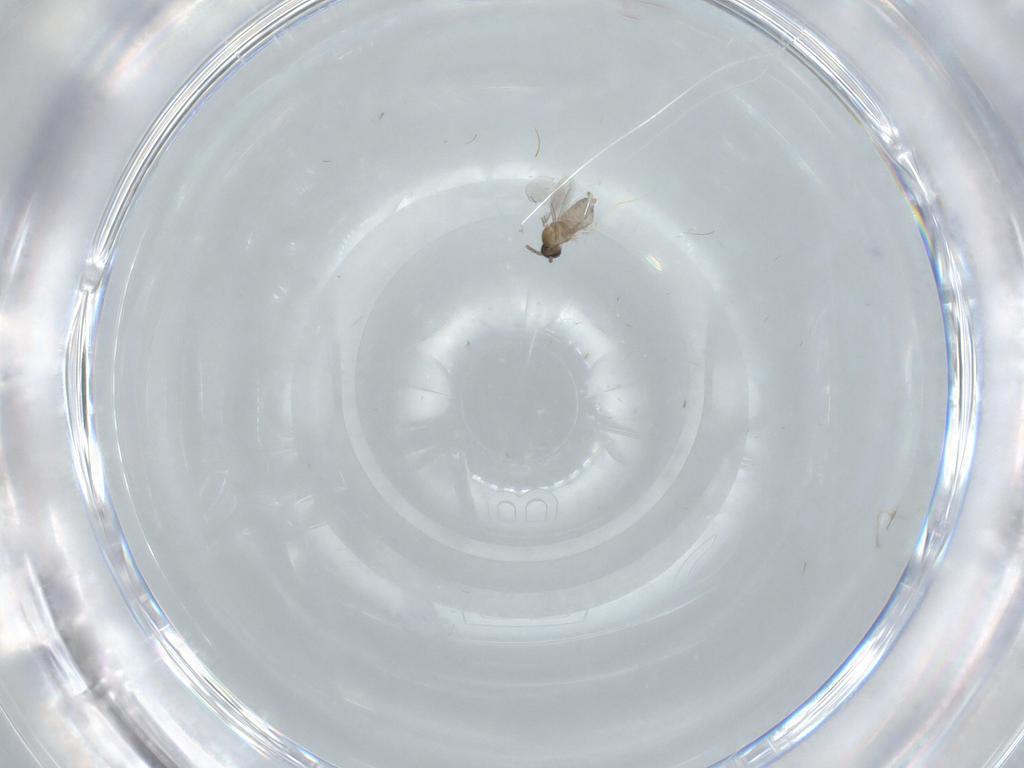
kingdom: Animalia
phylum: Arthropoda
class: Insecta
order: Diptera
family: Cecidomyiidae
